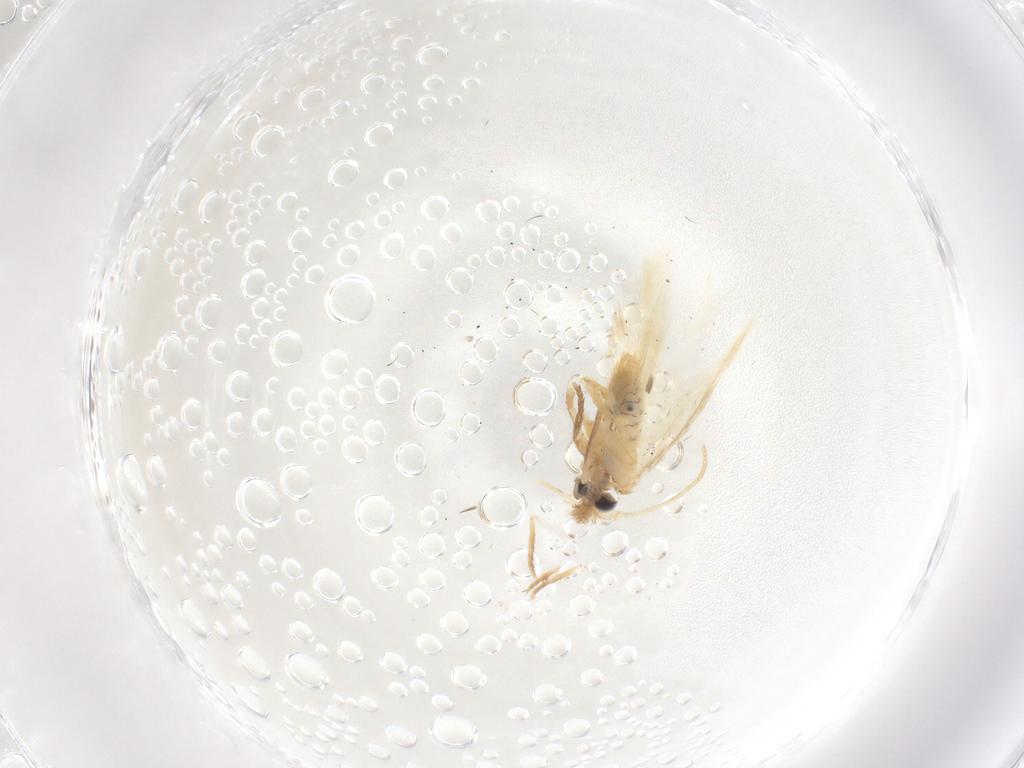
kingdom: Animalia
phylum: Arthropoda
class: Insecta
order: Lepidoptera
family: Nepticulidae
